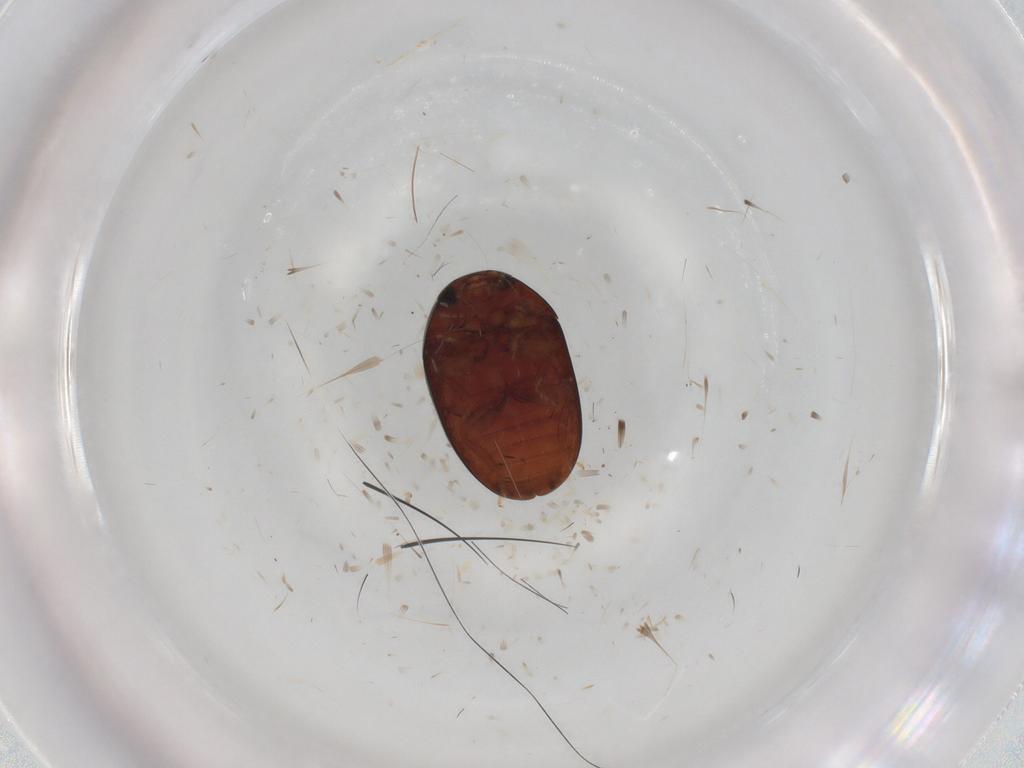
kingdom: Animalia
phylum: Arthropoda
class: Insecta
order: Coleoptera
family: Phalacridae
